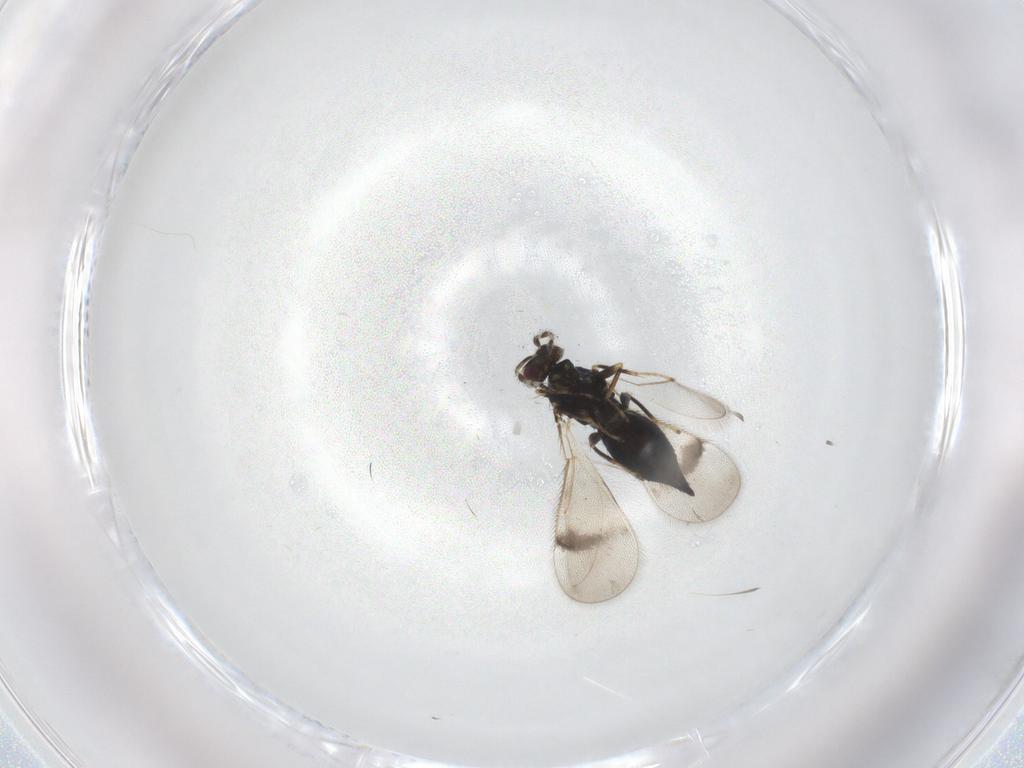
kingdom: Animalia
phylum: Arthropoda
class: Insecta
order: Hymenoptera
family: Eulophidae
